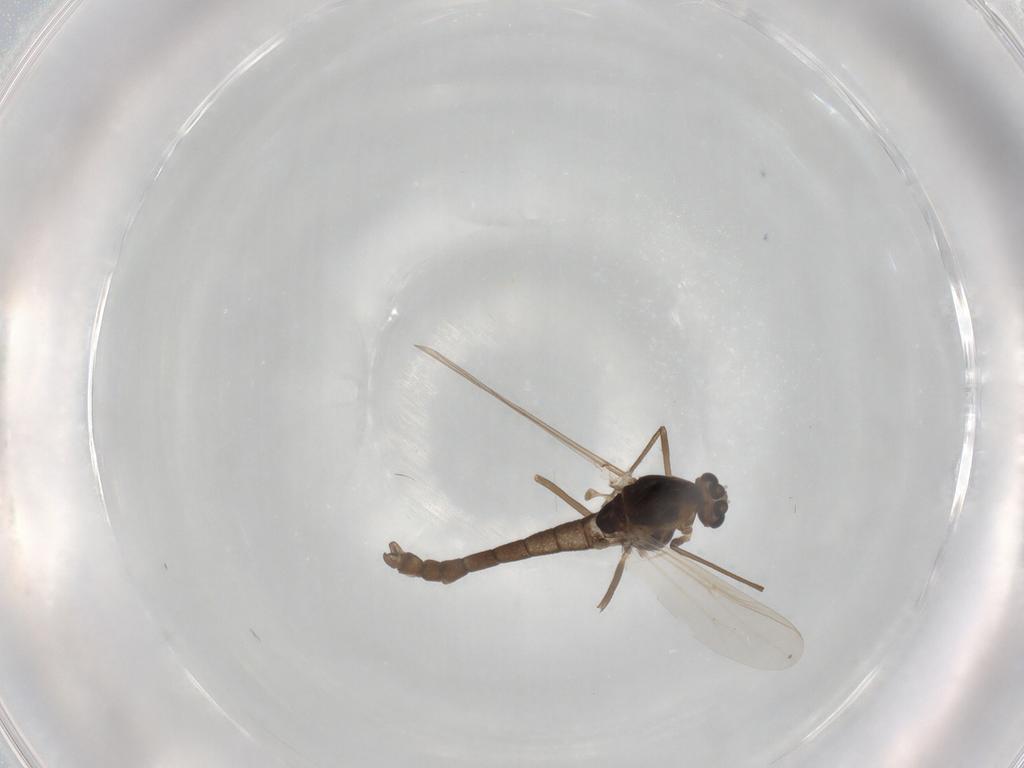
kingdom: Animalia
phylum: Arthropoda
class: Insecta
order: Diptera
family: Chironomidae
